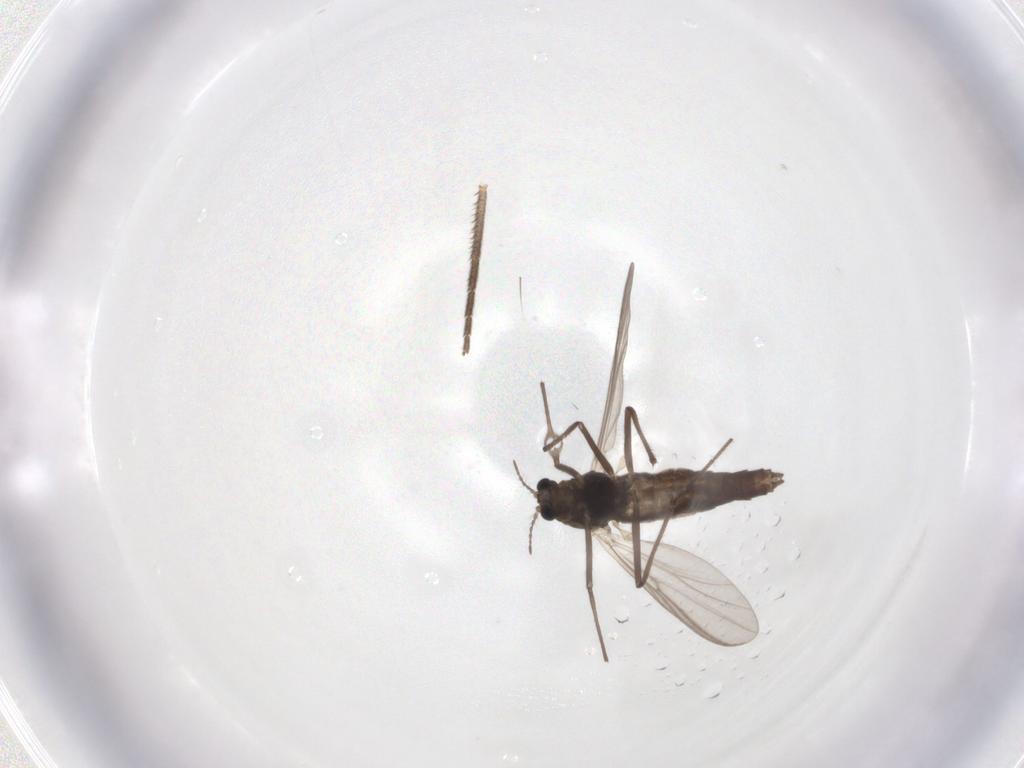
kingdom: Animalia
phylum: Arthropoda
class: Insecta
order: Diptera
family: Chironomidae
